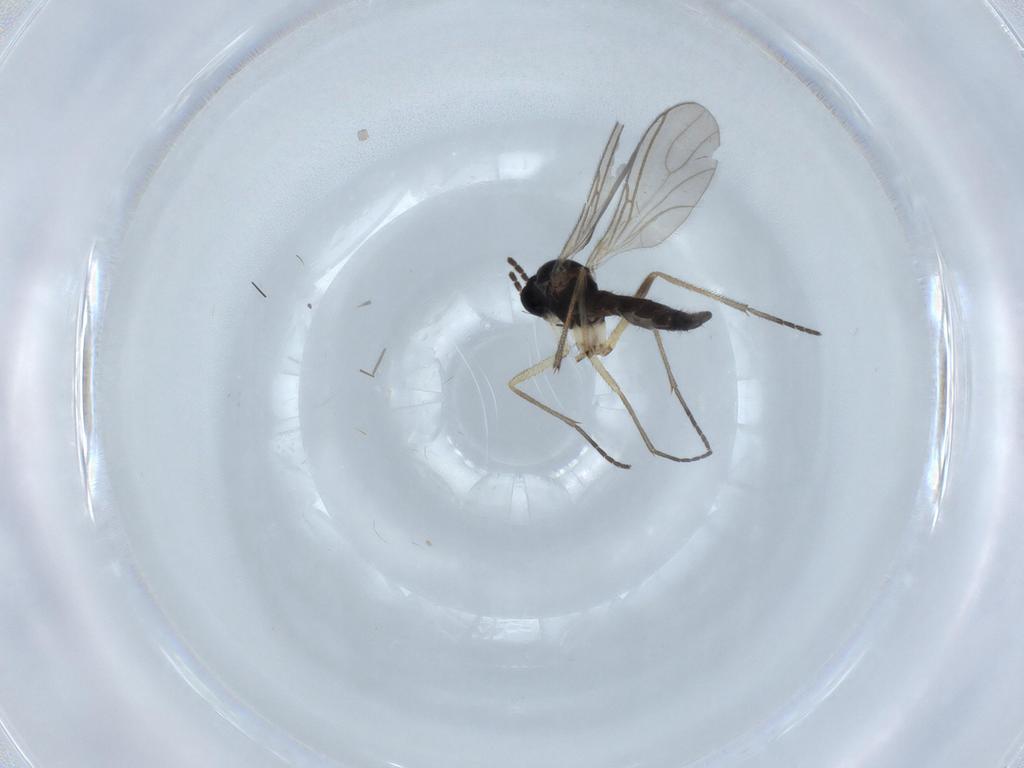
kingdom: Animalia
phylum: Arthropoda
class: Insecta
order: Diptera
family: Sciaridae
